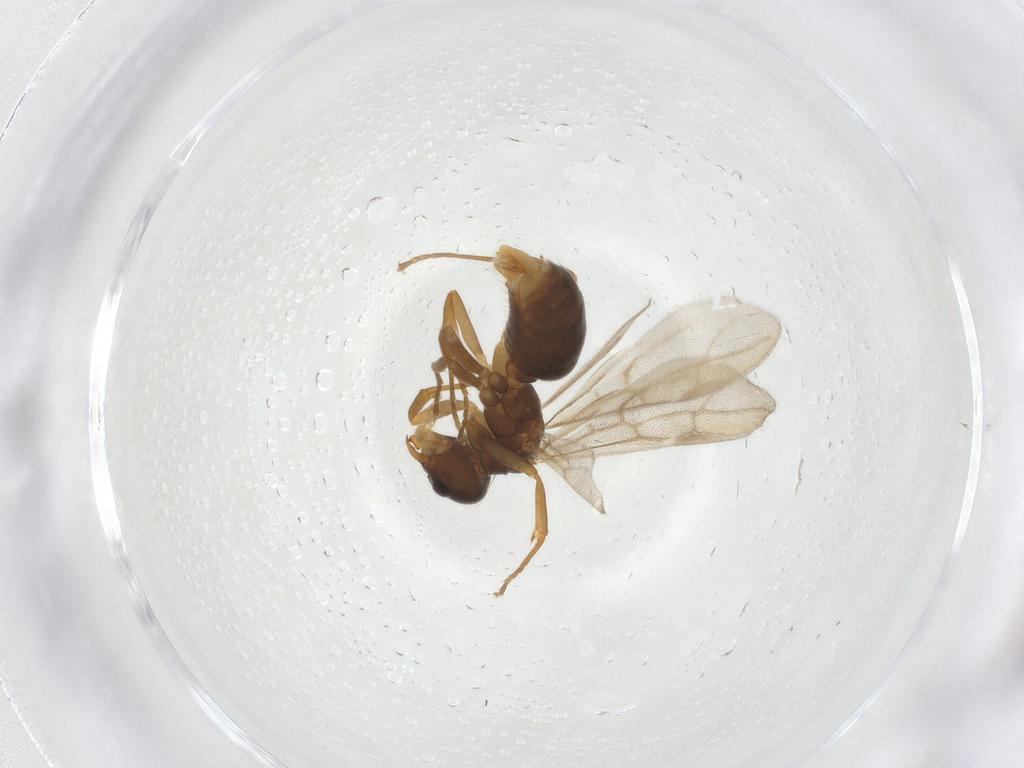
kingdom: Animalia
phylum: Arthropoda
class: Insecta
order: Hymenoptera
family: Formicidae
